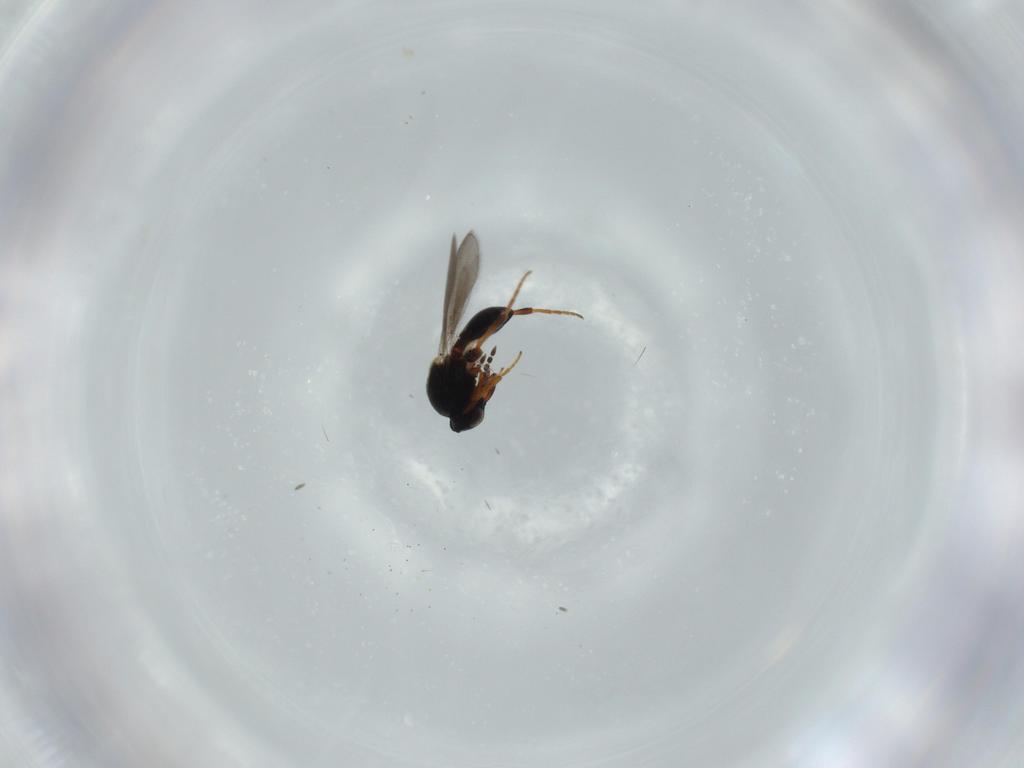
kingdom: Animalia
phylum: Arthropoda
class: Insecta
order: Hymenoptera
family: Platygastridae
